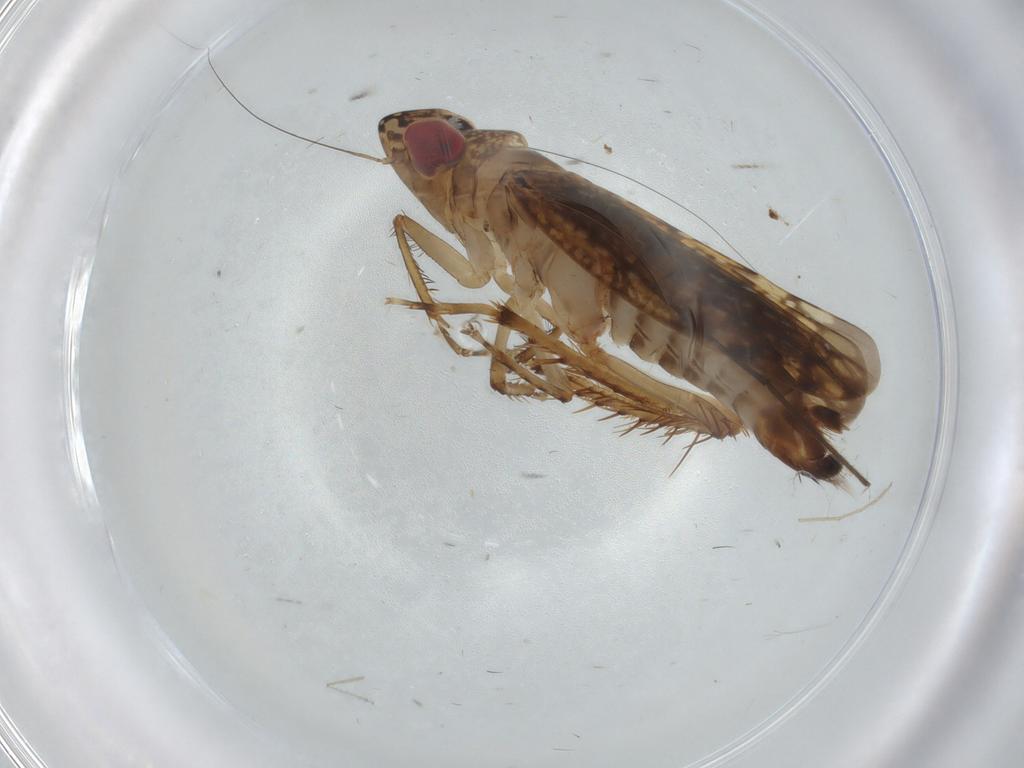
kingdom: Animalia
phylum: Arthropoda
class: Insecta
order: Hemiptera
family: Cicadellidae
